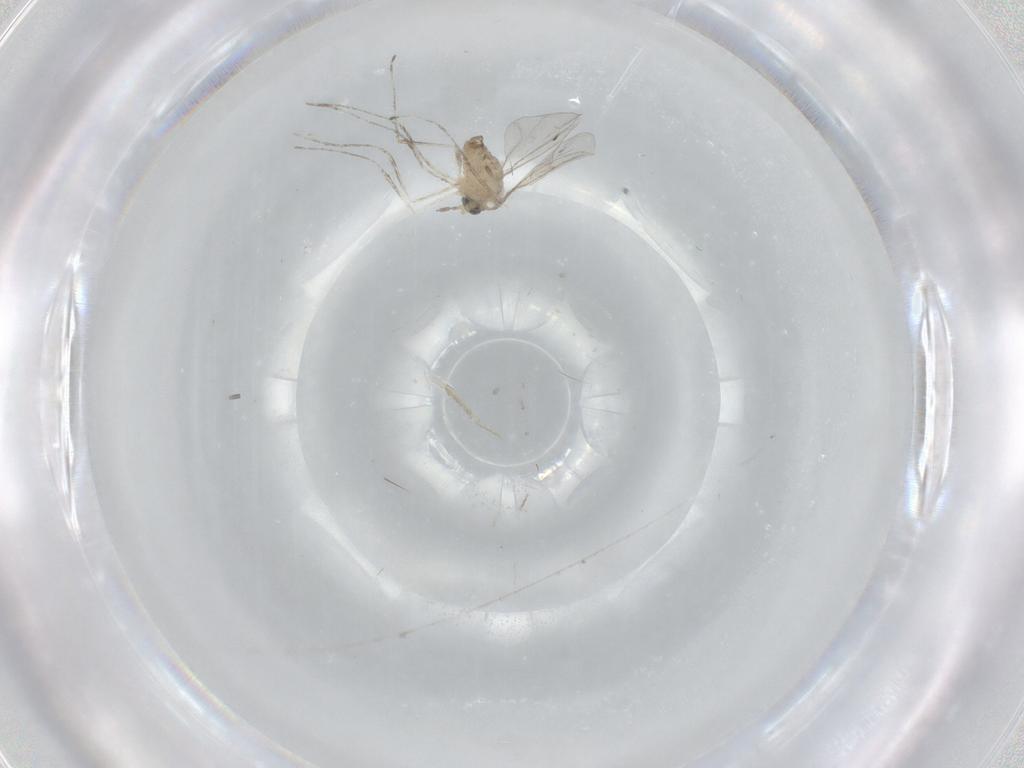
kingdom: Animalia
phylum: Arthropoda
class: Insecta
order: Diptera
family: Cecidomyiidae
